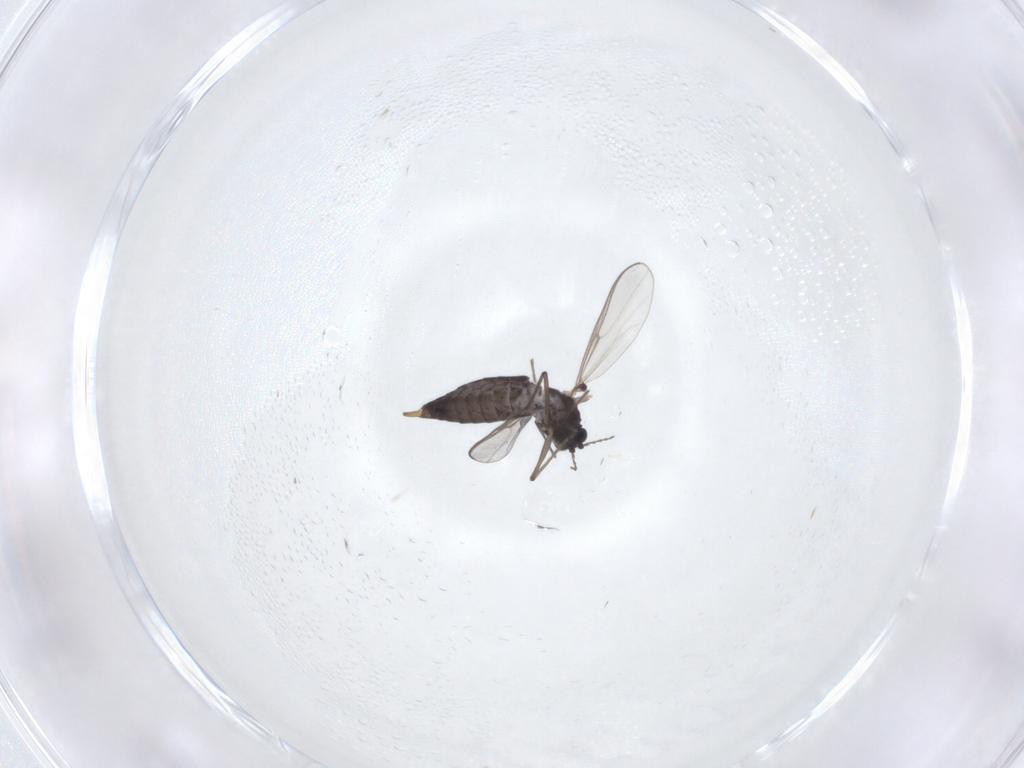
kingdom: Animalia
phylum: Arthropoda
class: Insecta
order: Diptera
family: Chironomidae
